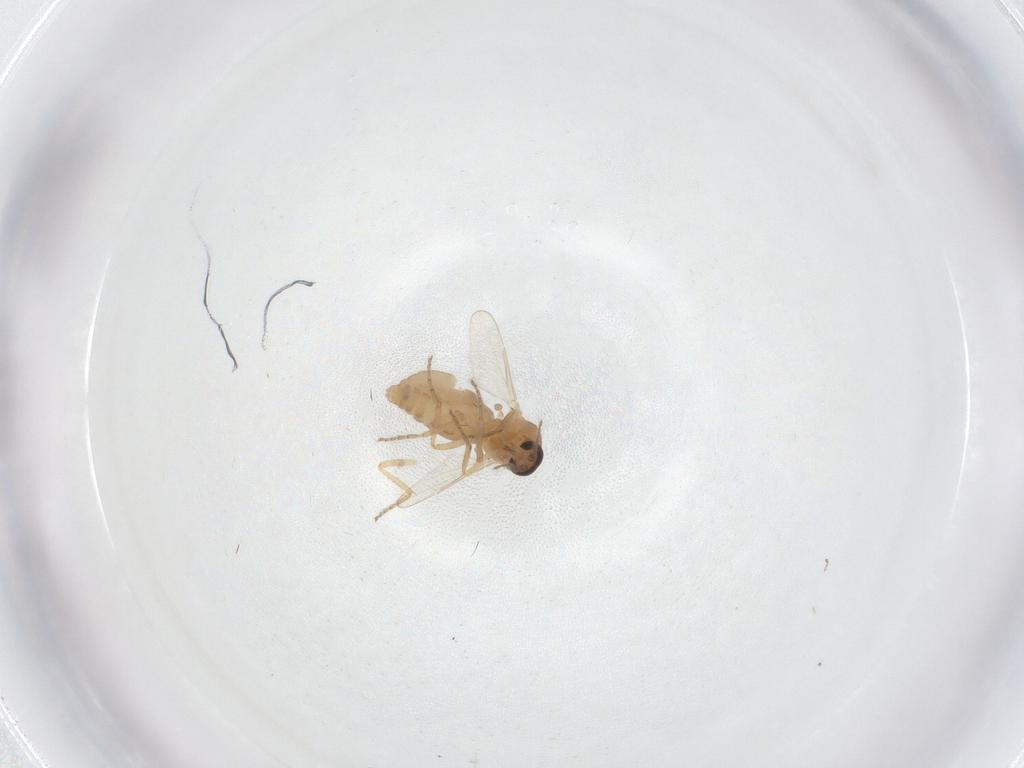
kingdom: Animalia
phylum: Arthropoda
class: Insecta
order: Diptera
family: Ceratopogonidae
